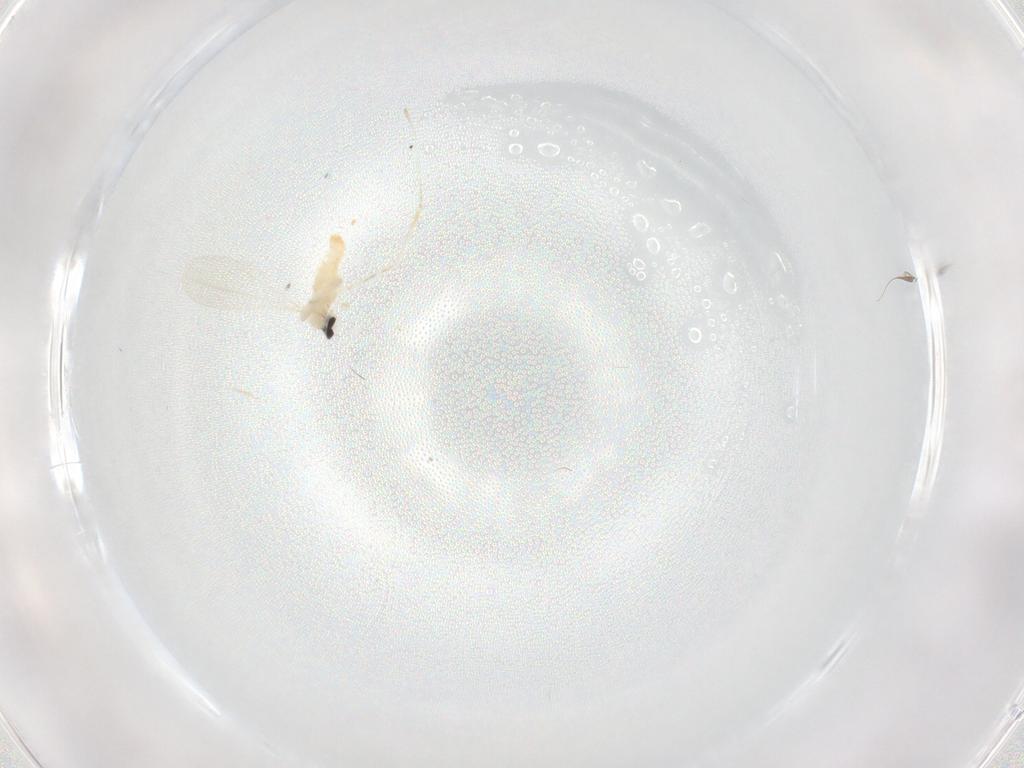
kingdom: Animalia
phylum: Arthropoda
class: Insecta
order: Diptera
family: Cecidomyiidae
